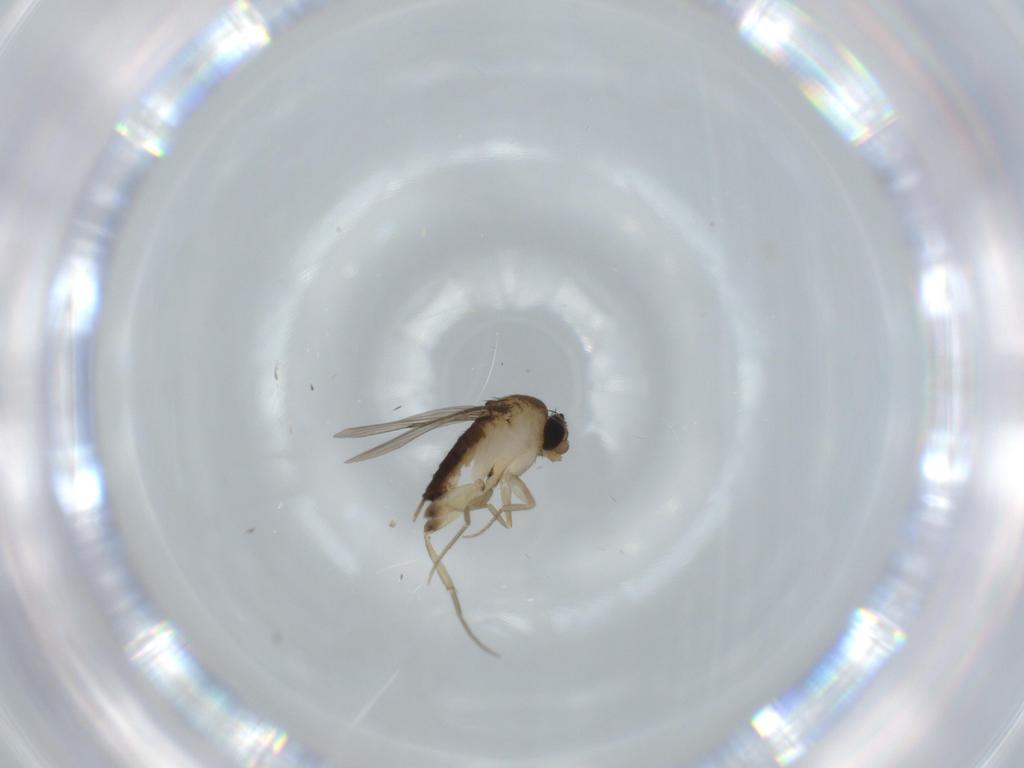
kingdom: Animalia
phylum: Arthropoda
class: Insecta
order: Diptera
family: Phoridae
